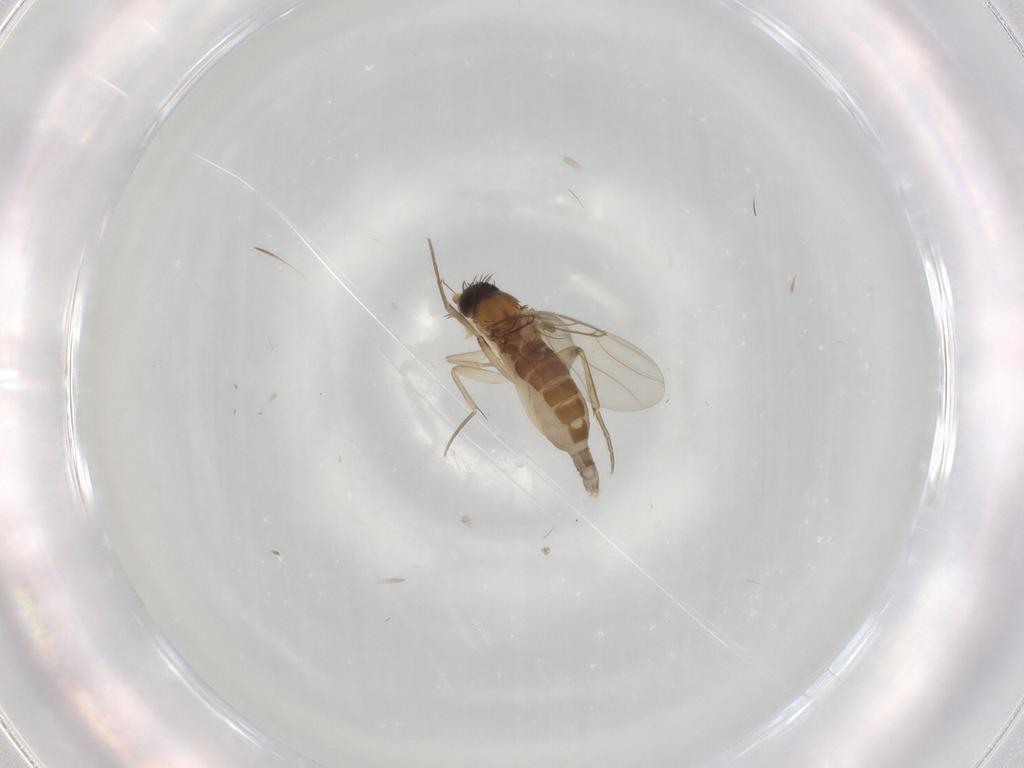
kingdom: Animalia
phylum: Arthropoda
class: Insecta
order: Diptera
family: Phoridae
